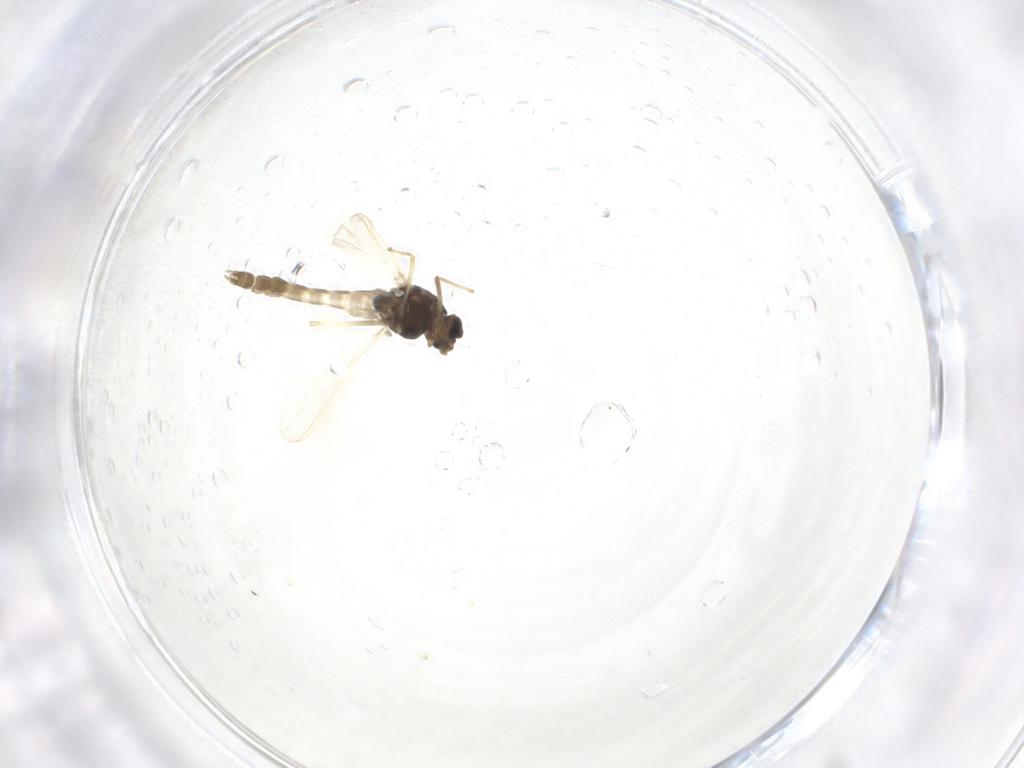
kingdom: Animalia
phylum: Arthropoda
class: Insecta
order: Diptera
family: Chironomidae
